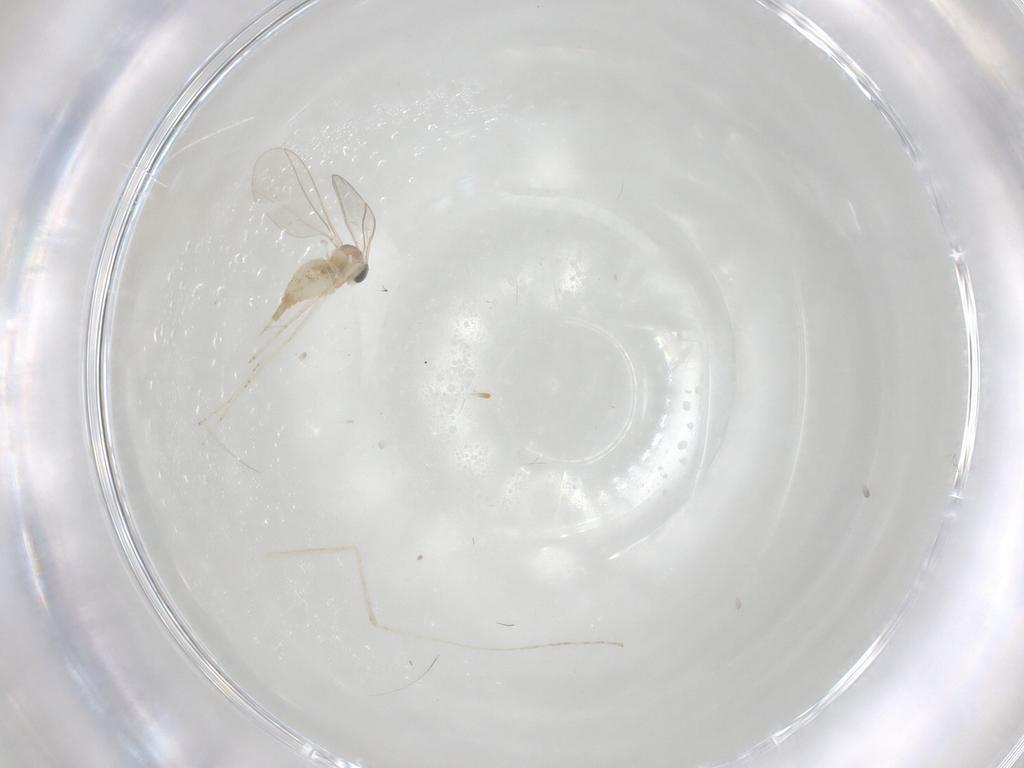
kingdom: Animalia
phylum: Arthropoda
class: Insecta
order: Diptera
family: Cecidomyiidae
